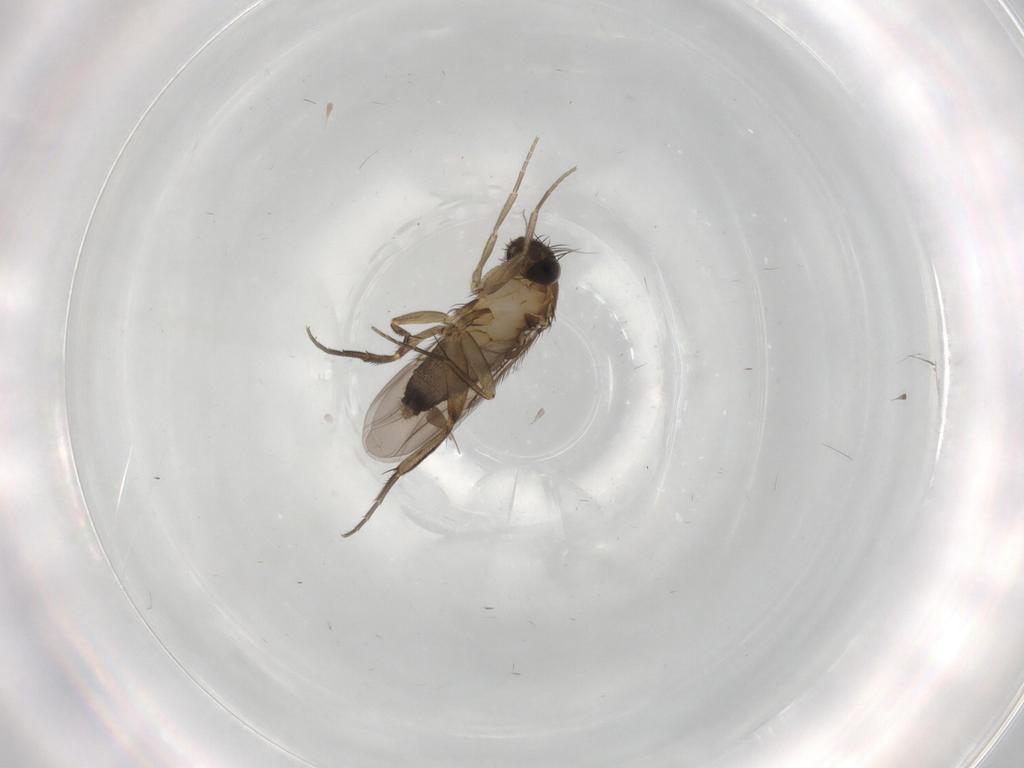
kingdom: Animalia
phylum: Arthropoda
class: Insecta
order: Diptera
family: Phoridae
